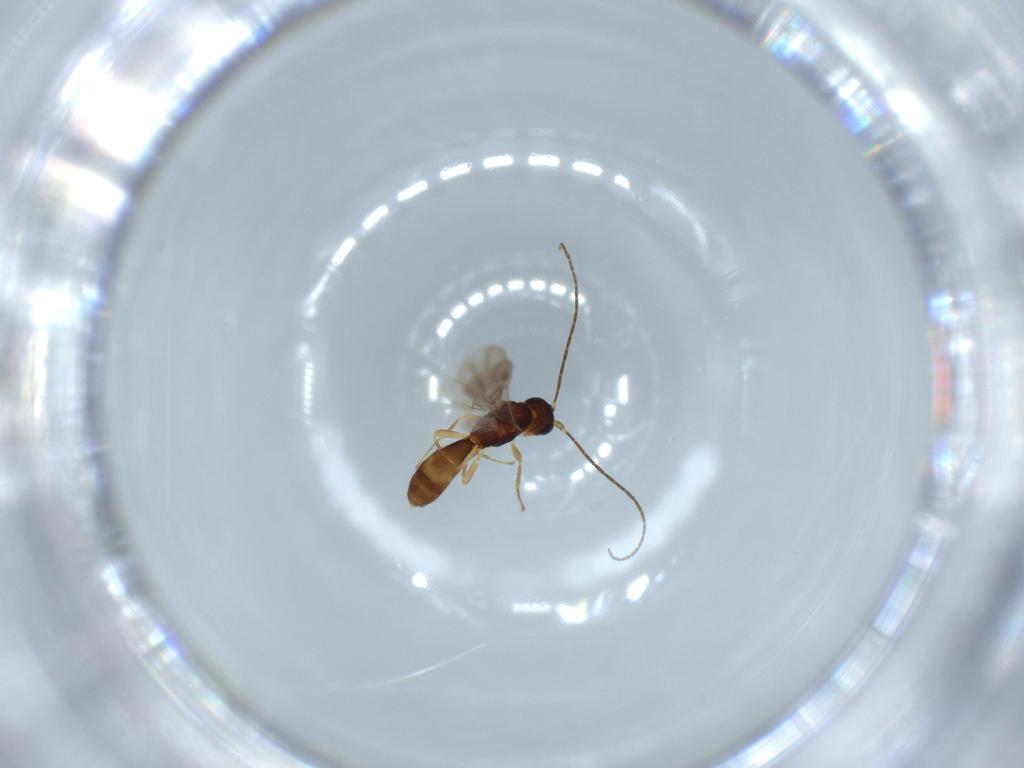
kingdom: Animalia
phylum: Arthropoda
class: Insecta
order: Hymenoptera
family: Braconidae
